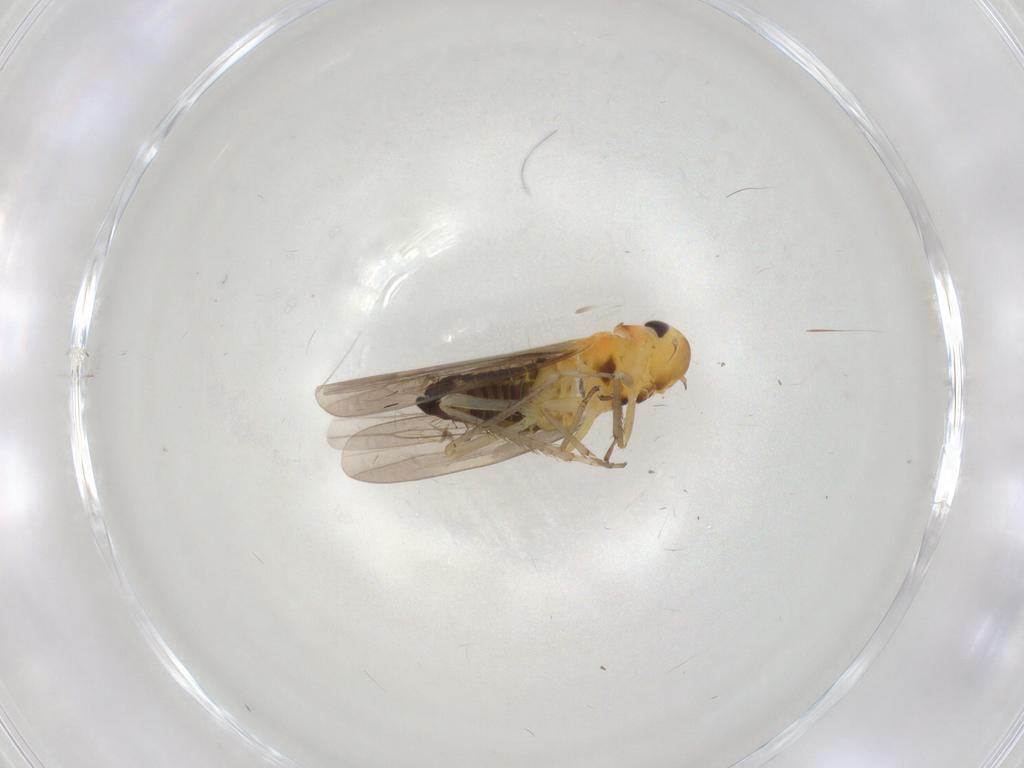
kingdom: Animalia
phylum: Arthropoda
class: Insecta
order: Hemiptera
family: Cicadellidae
